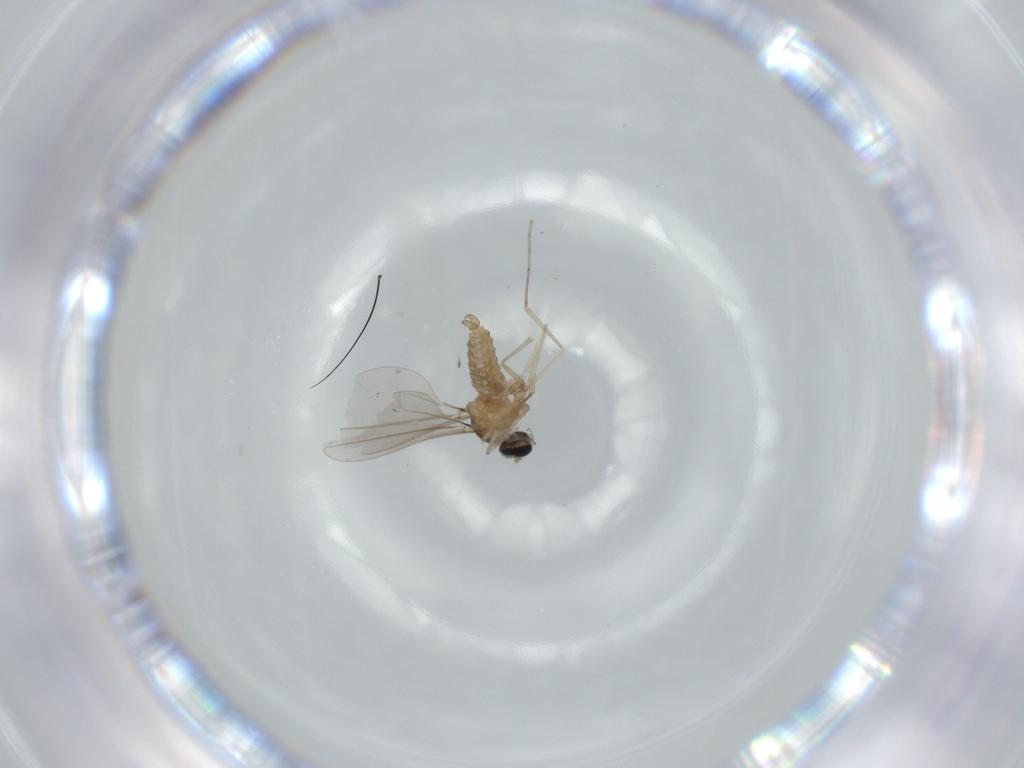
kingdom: Animalia
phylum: Arthropoda
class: Insecta
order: Diptera
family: Cecidomyiidae
